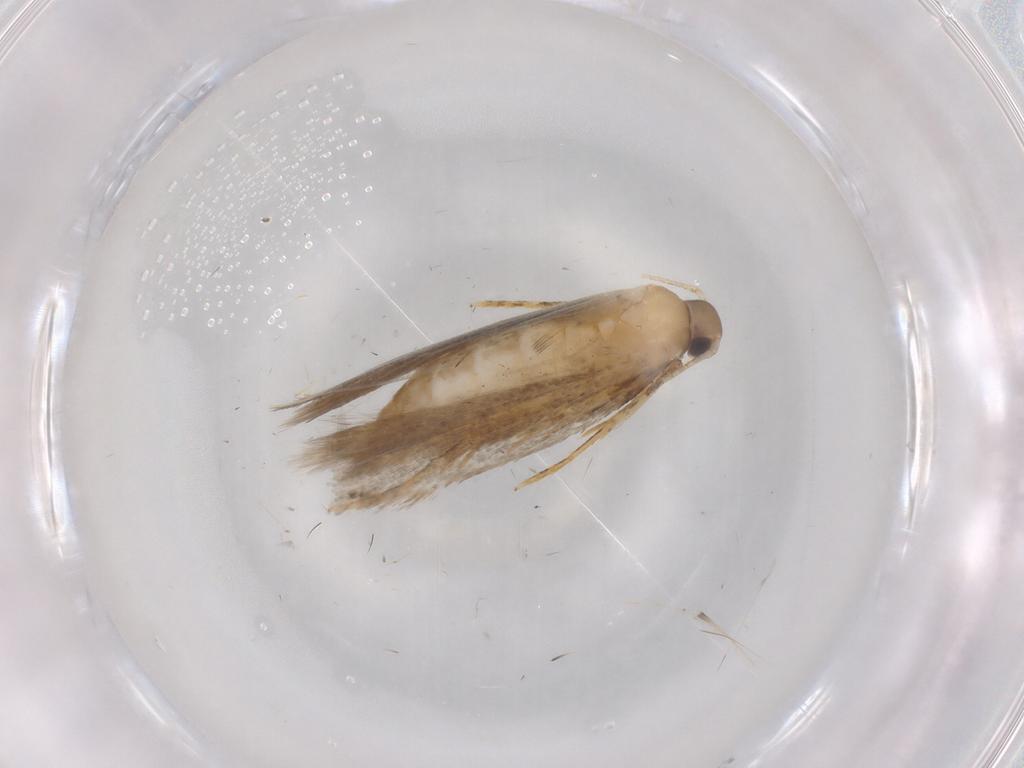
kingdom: Animalia
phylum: Arthropoda
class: Insecta
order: Lepidoptera
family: Autostichidae
